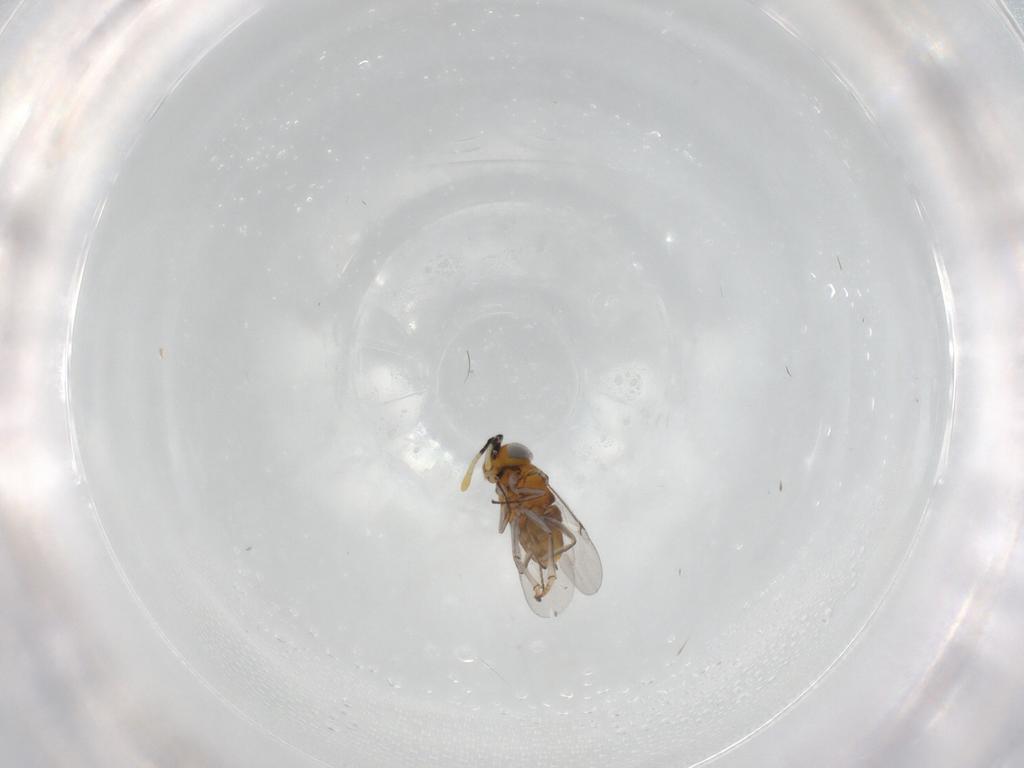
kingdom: Animalia
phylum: Arthropoda
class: Insecta
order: Hymenoptera
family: Encyrtidae
